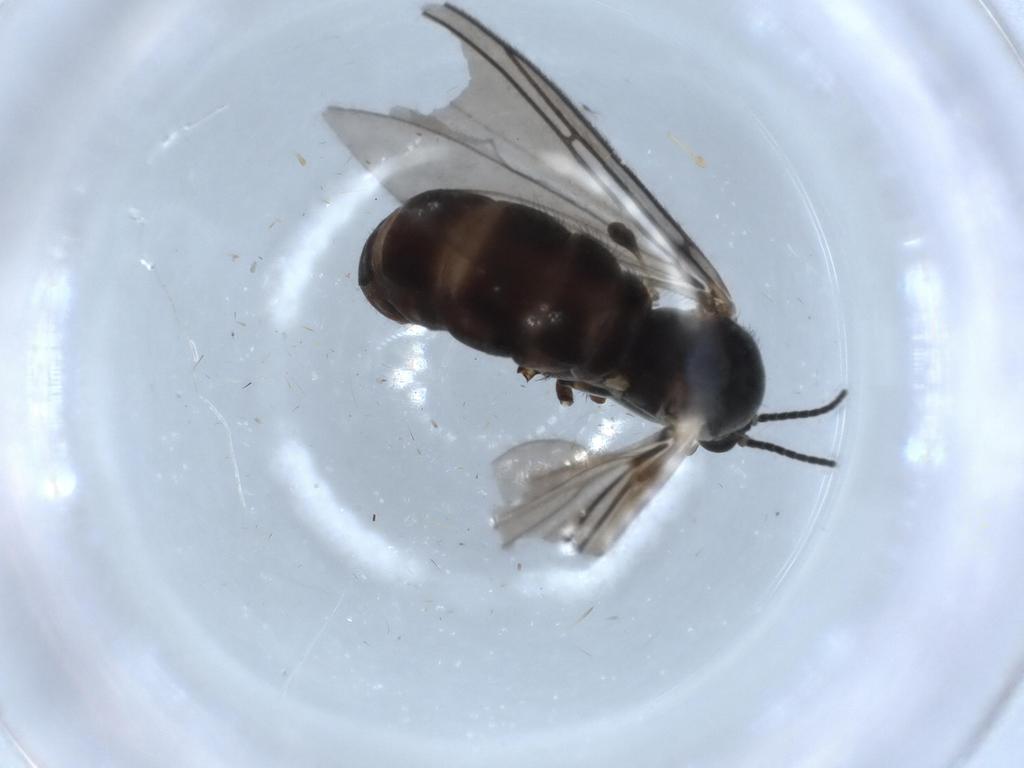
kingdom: Animalia
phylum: Arthropoda
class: Insecta
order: Diptera
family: Sciaridae
